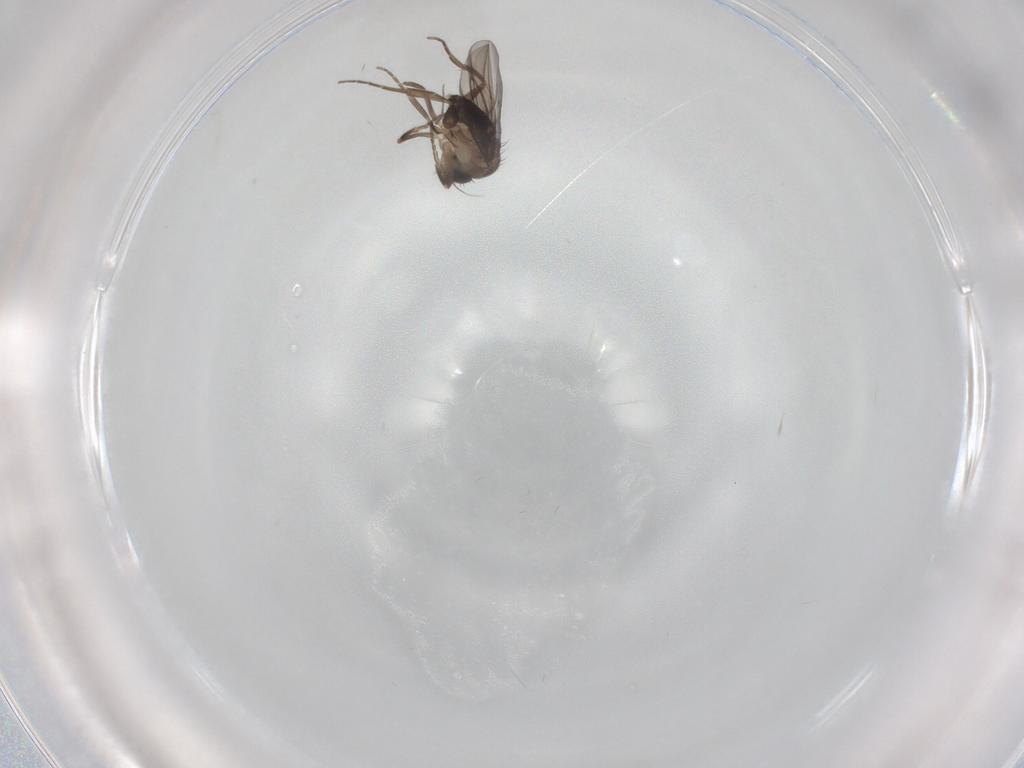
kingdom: Animalia
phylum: Arthropoda
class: Insecta
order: Diptera
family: Phoridae
